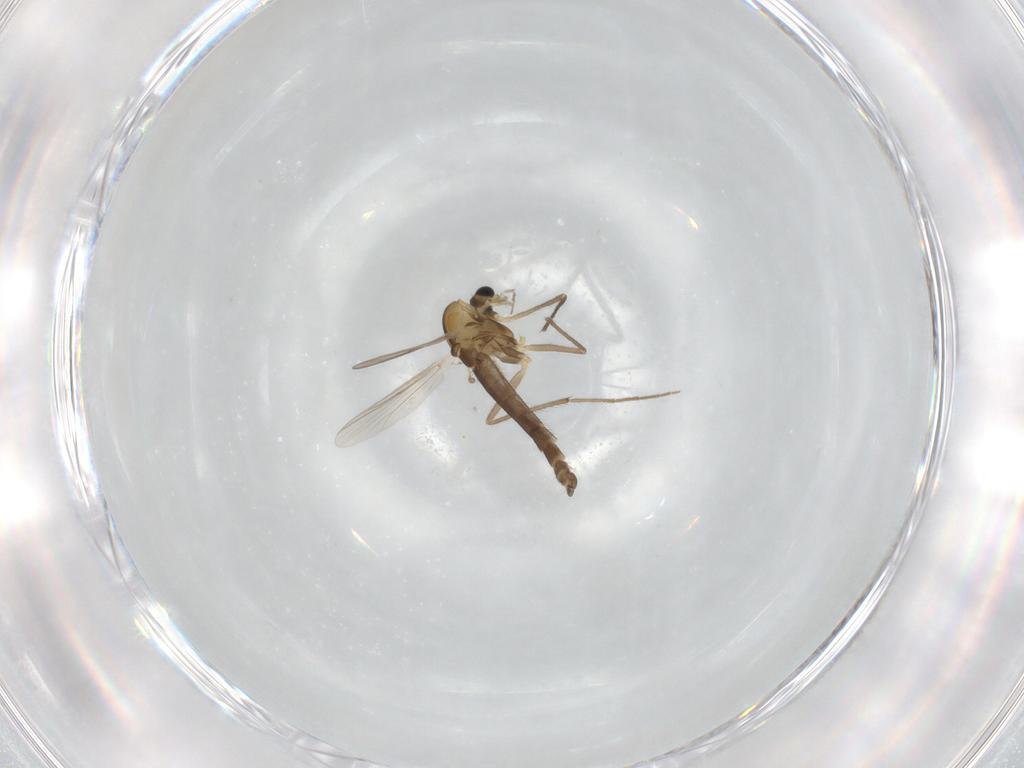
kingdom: Animalia
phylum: Arthropoda
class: Insecta
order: Diptera
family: Chironomidae
